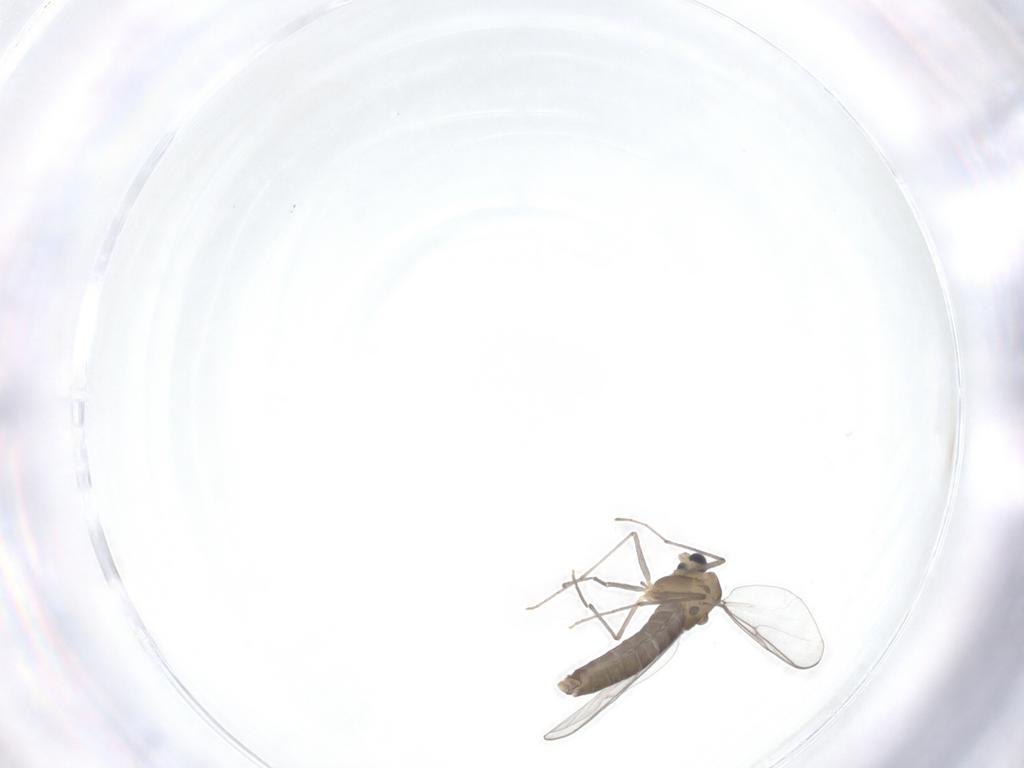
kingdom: Animalia
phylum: Arthropoda
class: Insecta
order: Diptera
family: Chironomidae
